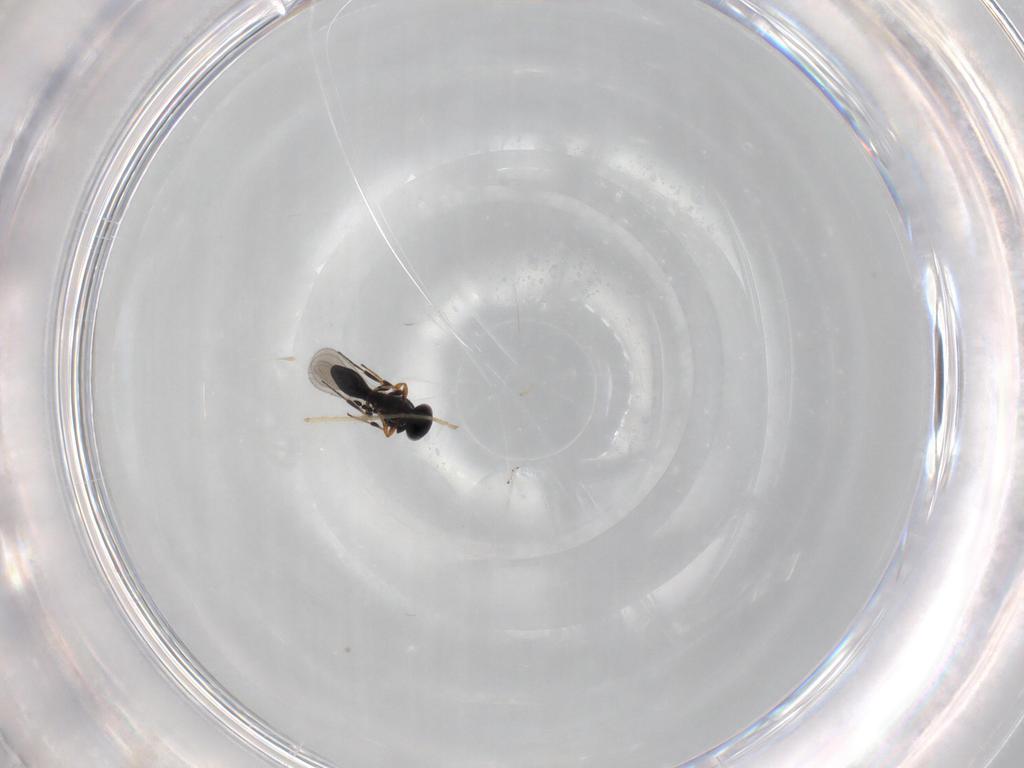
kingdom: Animalia
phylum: Arthropoda
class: Insecta
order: Hymenoptera
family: Platygastridae
